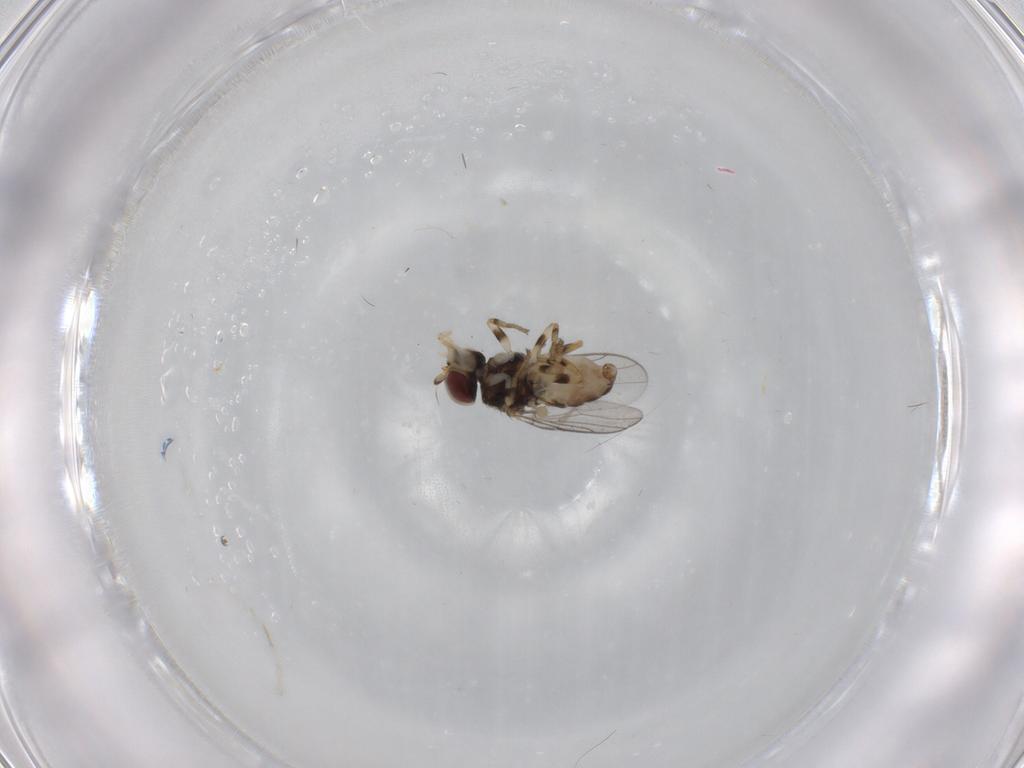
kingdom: Animalia
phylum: Arthropoda
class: Insecta
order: Diptera
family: Chloropidae
